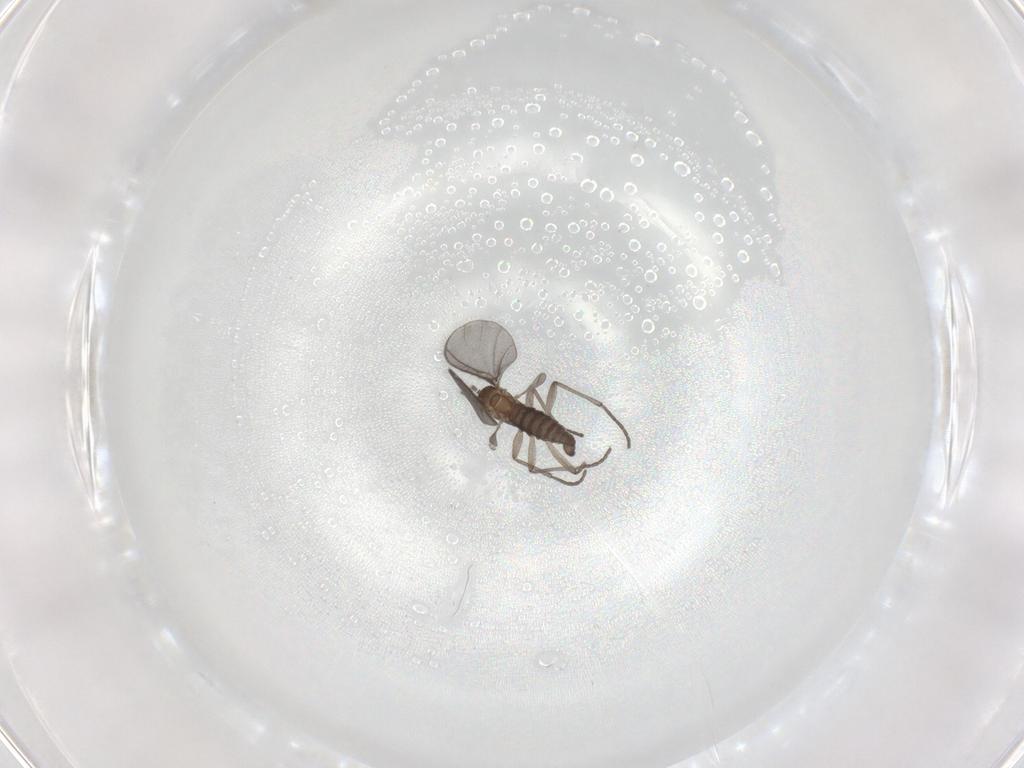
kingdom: Animalia
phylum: Arthropoda
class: Insecta
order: Diptera
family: Sciaridae
